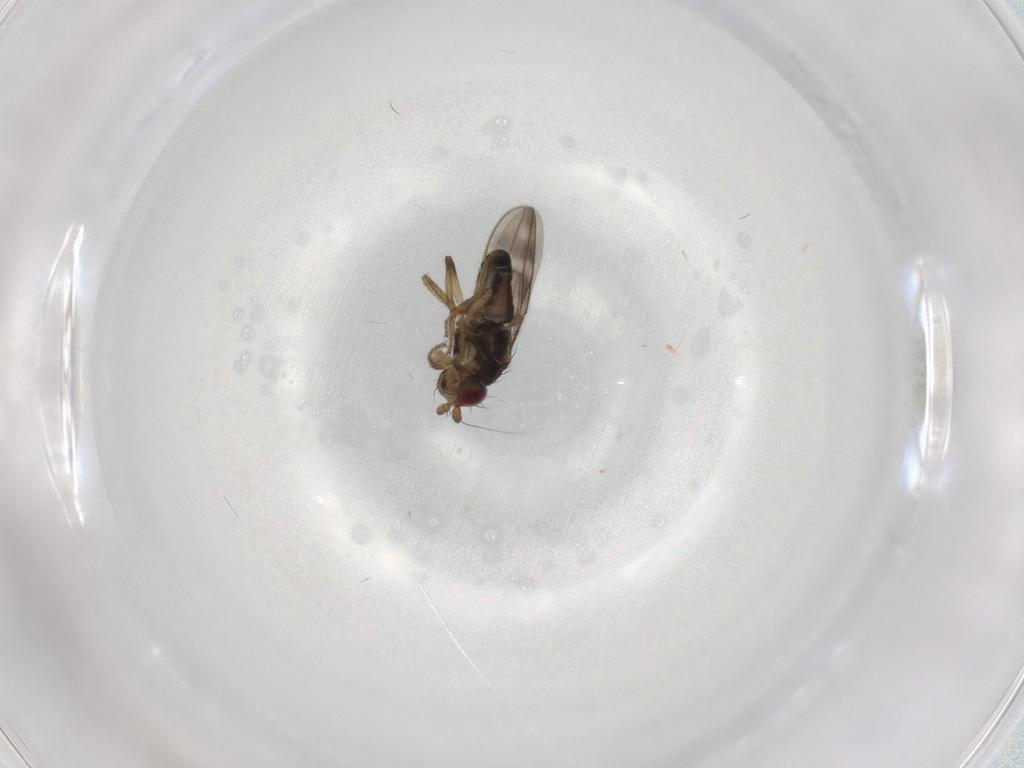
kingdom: Animalia
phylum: Arthropoda
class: Insecta
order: Diptera
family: Sphaeroceridae
